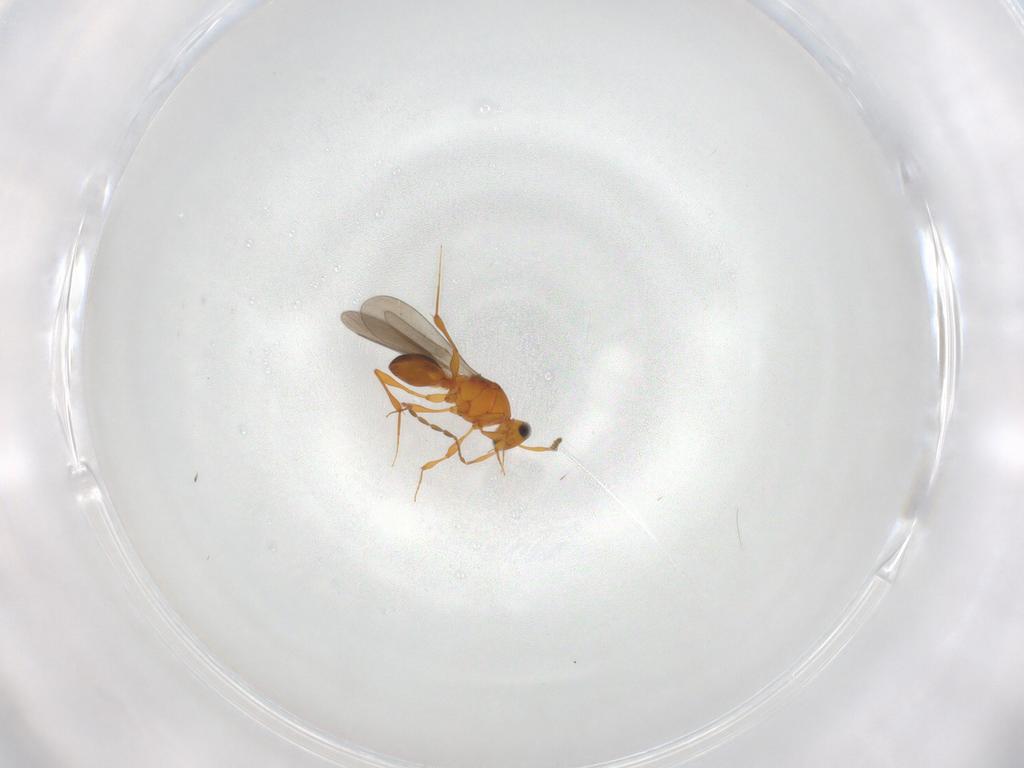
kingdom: Animalia
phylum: Arthropoda
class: Insecta
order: Hymenoptera
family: Platygastridae
